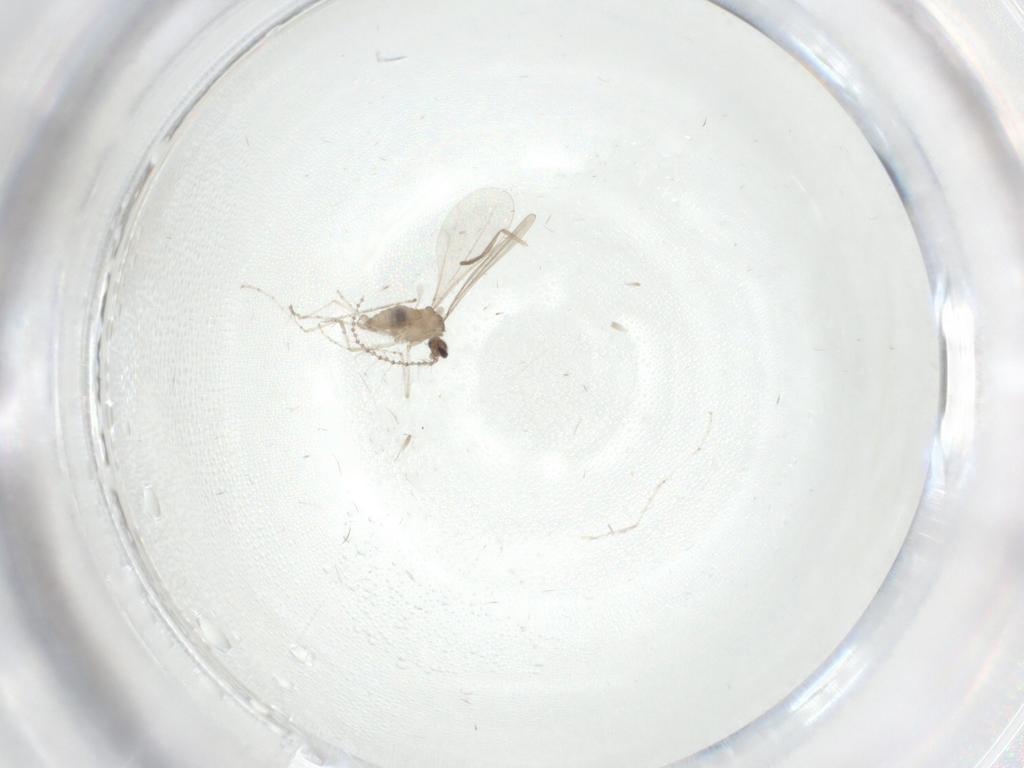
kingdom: Animalia
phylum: Arthropoda
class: Insecta
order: Diptera
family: Cecidomyiidae
